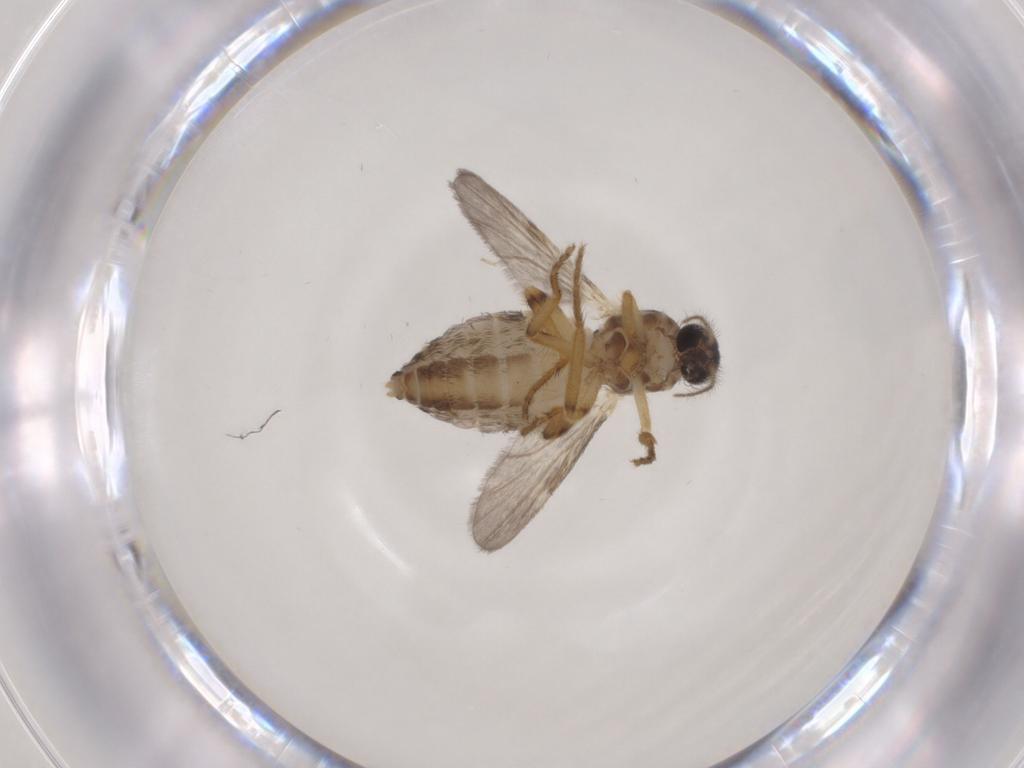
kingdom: Animalia
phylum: Arthropoda
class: Insecta
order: Diptera
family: Ceratopogonidae
